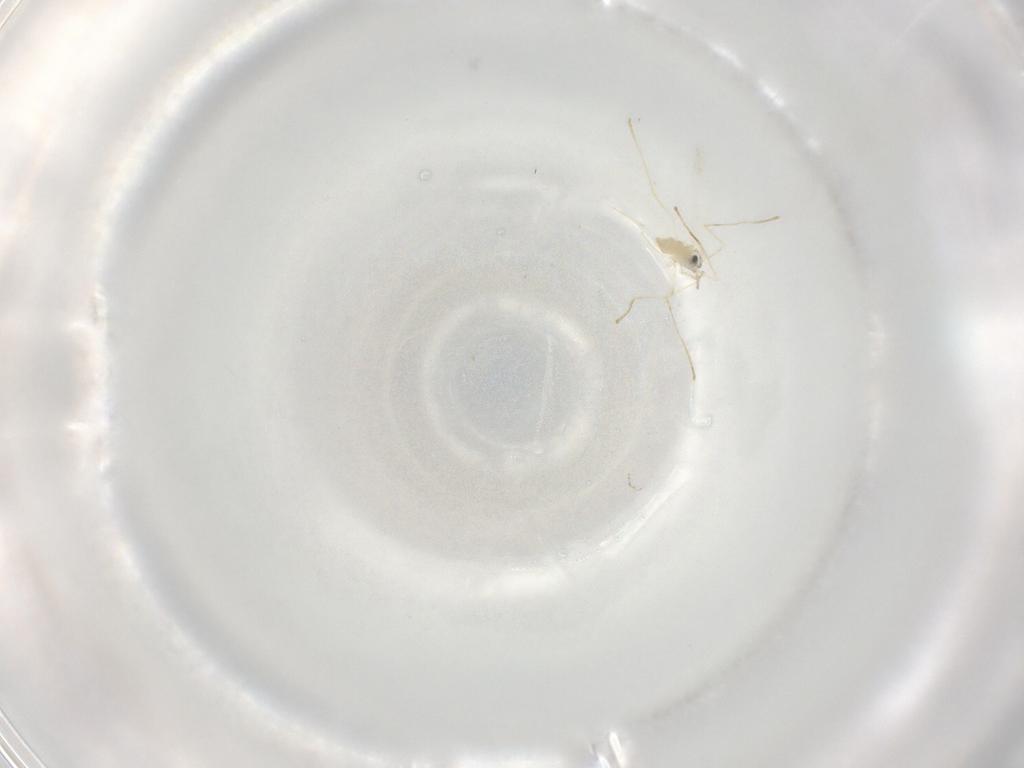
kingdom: Animalia
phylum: Arthropoda
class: Insecta
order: Diptera
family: Cecidomyiidae
